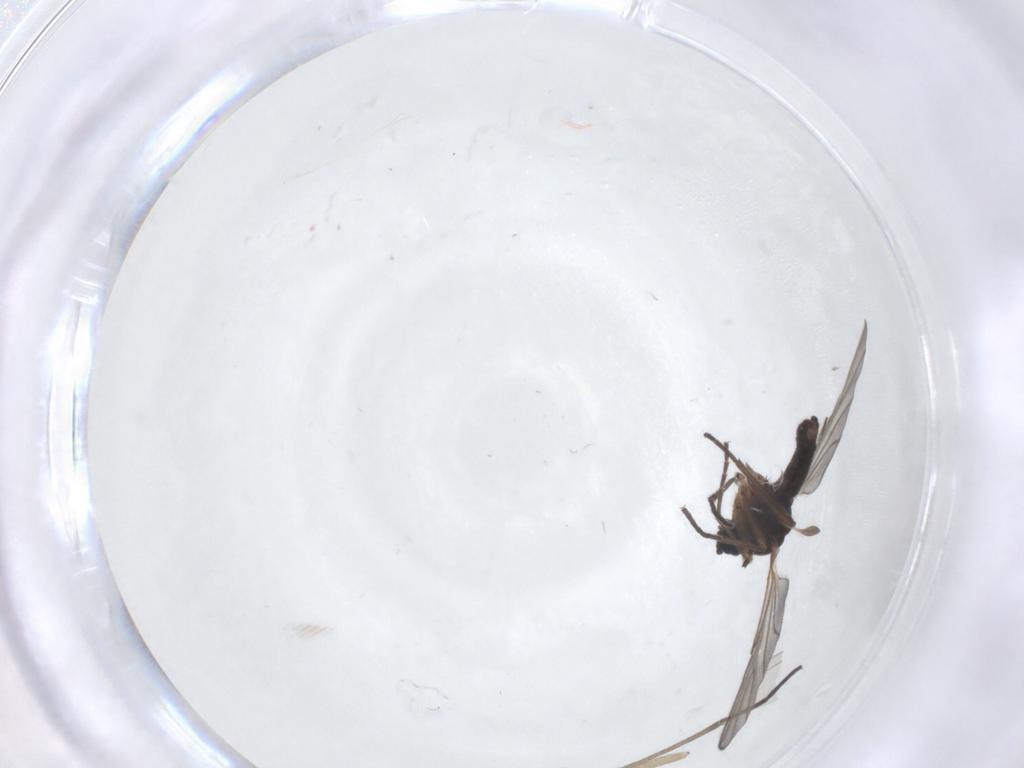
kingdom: Animalia
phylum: Arthropoda
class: Insecta
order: Diptera
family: Sciaridae
